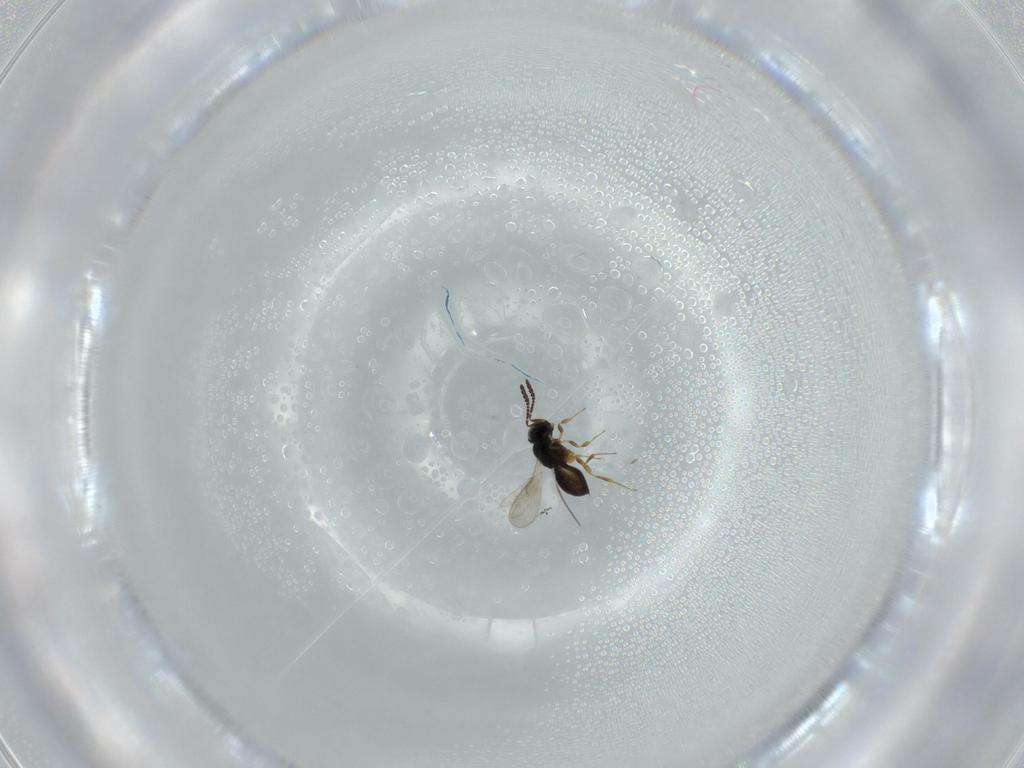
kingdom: Animalia
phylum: Arthropoda
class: Insecta
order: Hymenoptera
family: Scelionidae
